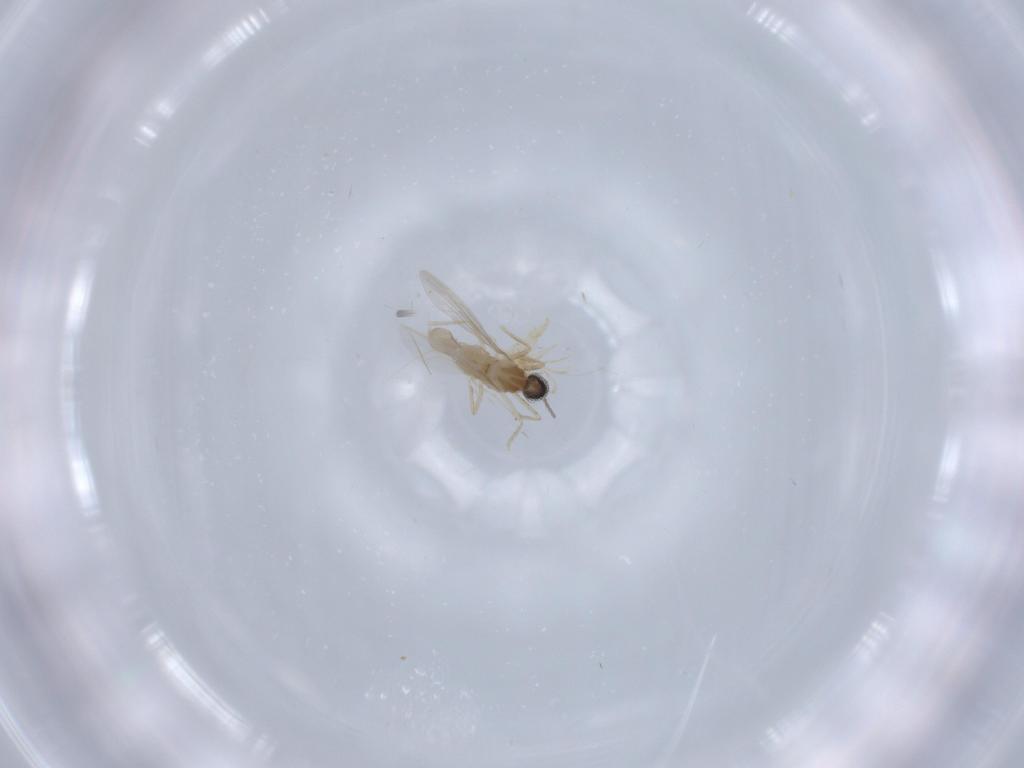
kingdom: Animalia
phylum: Arthropoda
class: Insecta
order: Diptera
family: Cecidomyiidae
